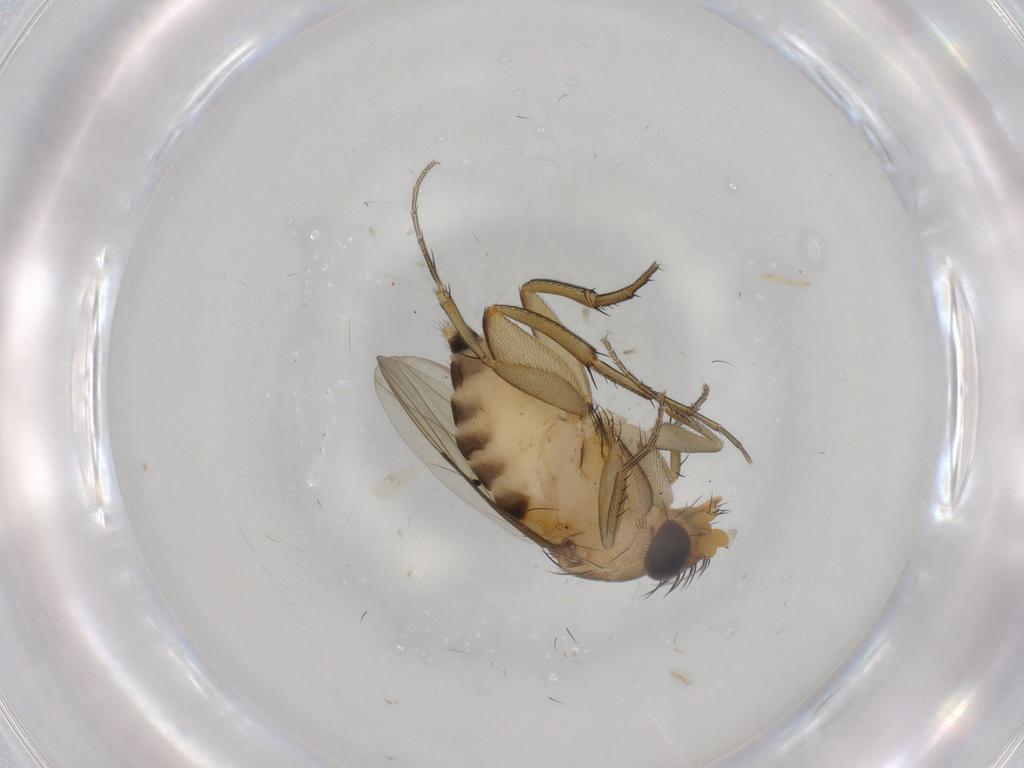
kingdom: Animalia
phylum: Arthropoda
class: Insecta
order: Diptera
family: Phoridae
